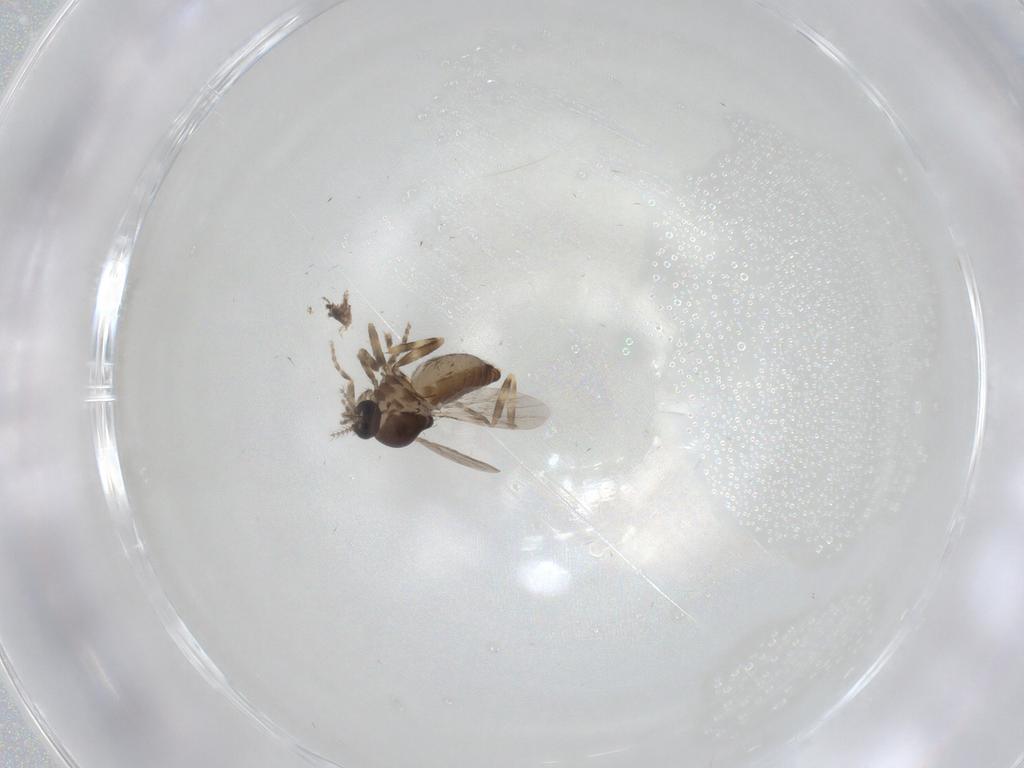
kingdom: Animalia
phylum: Arthropoda
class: Insecta
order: Diptera
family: Ceratopogonidae
